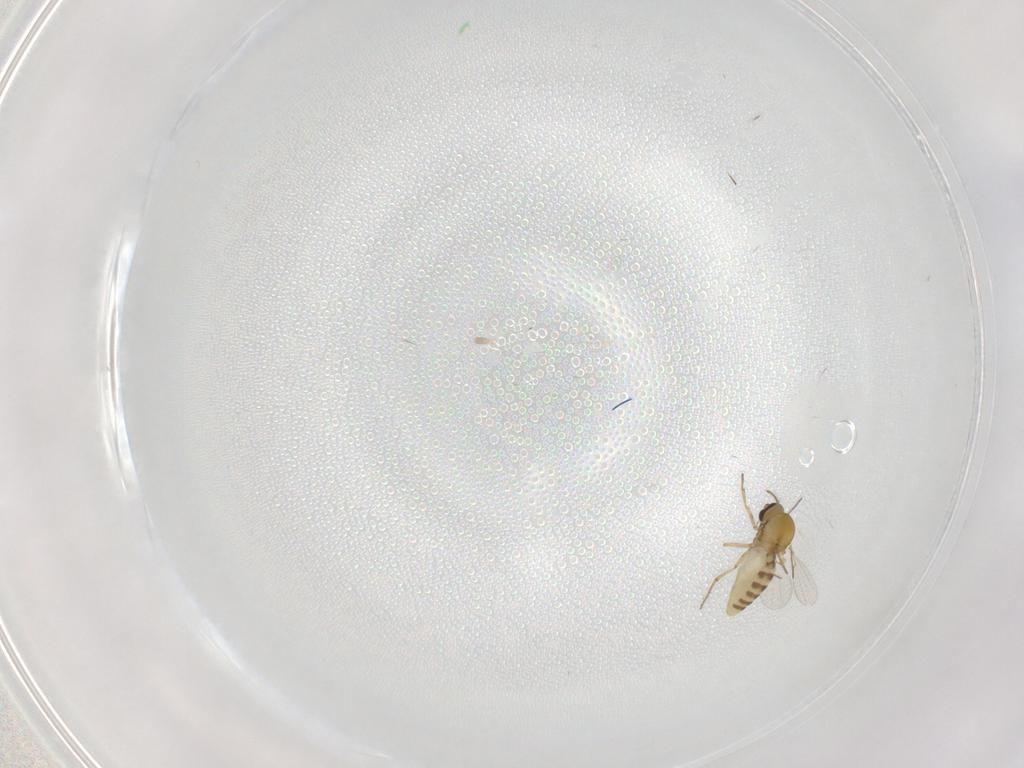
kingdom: Animalia
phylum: Arthropoda
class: Insecta
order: Diptera
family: Ceratopogonidae
